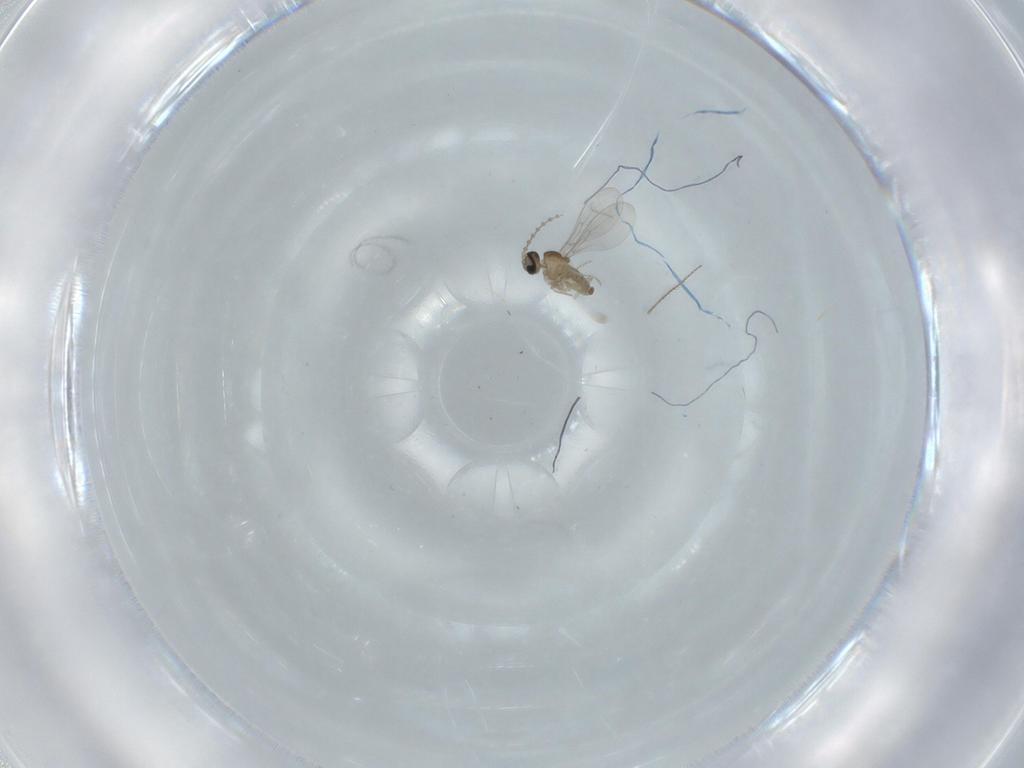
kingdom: Animalia
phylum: Arthropoda
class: Insecta
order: Diptera
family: Cecidomyiidae
